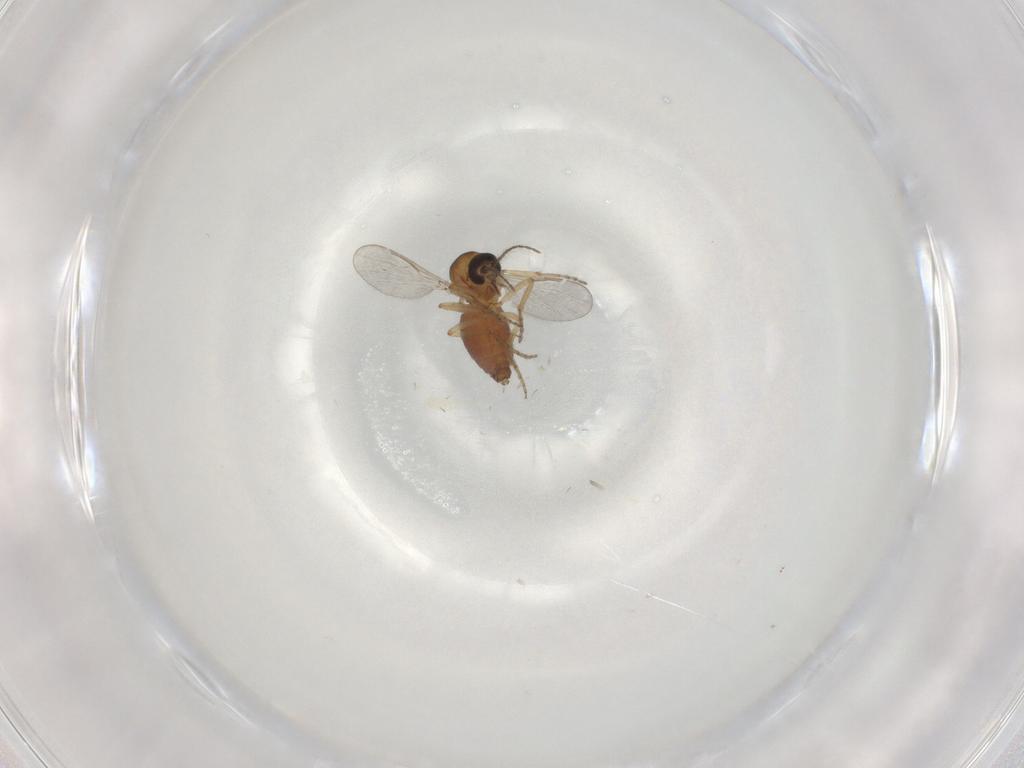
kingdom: Animalia
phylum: Arthropoda
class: Insecta
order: Diptera
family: Ceratopogonidae
